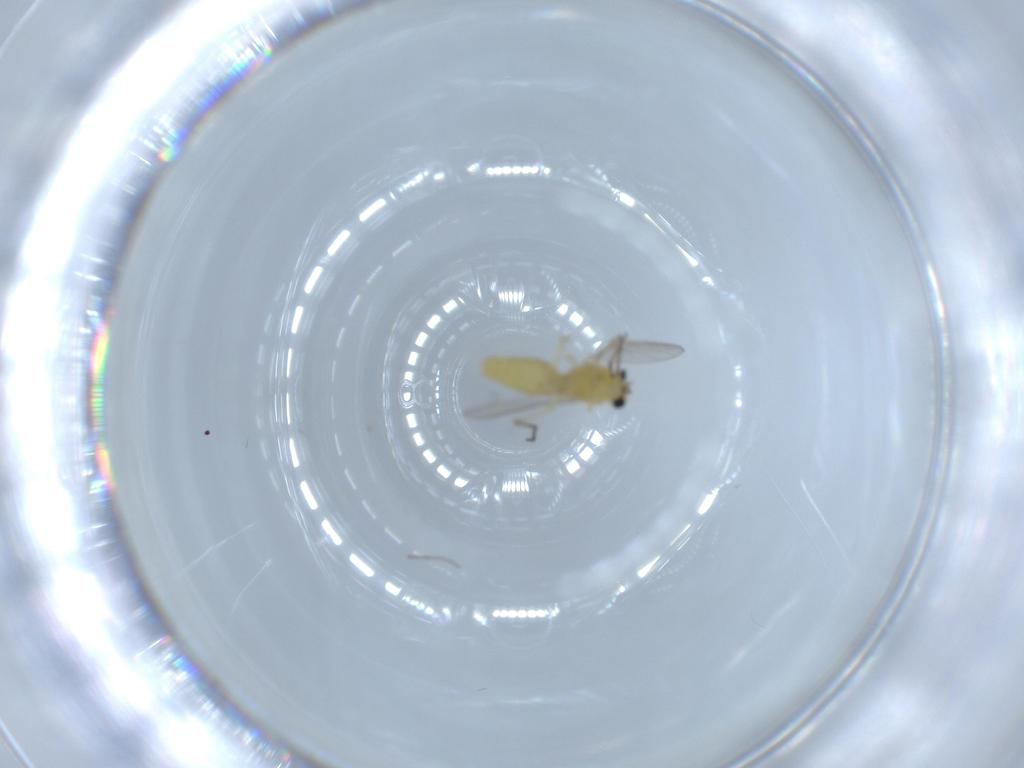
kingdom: Animalia
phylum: Arthropoda
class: Insecta
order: Diptera
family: Chironomidae
